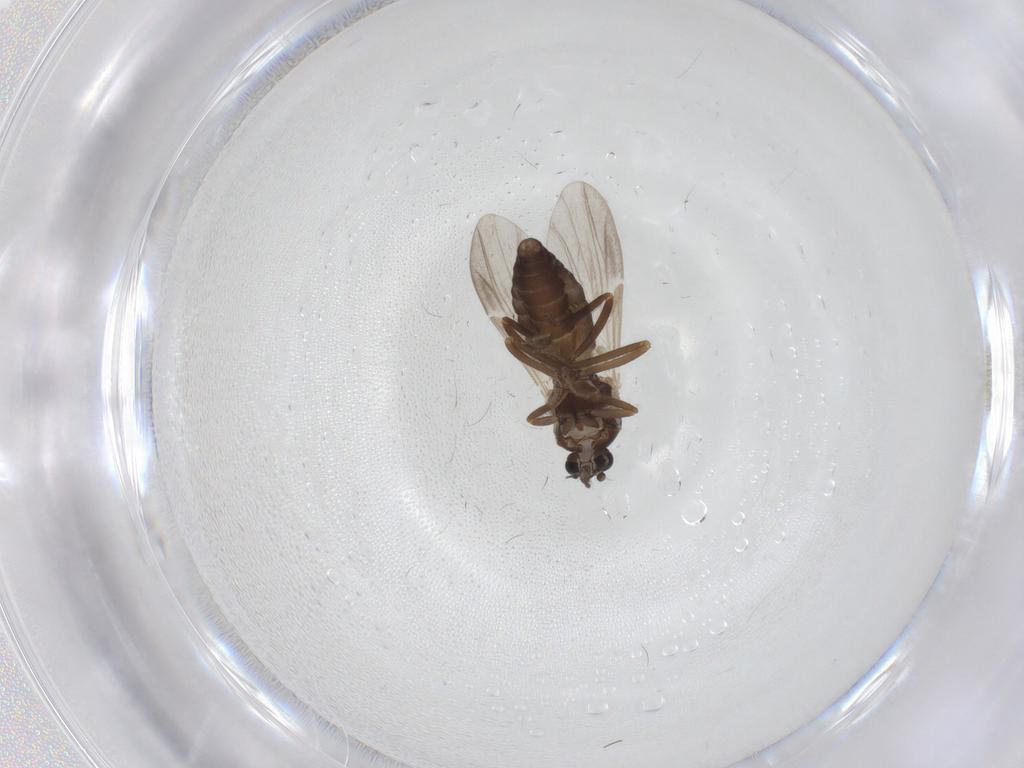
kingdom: Animalia
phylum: Arthropoda
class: Insecta
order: Diptera
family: Ceratopogonidae
